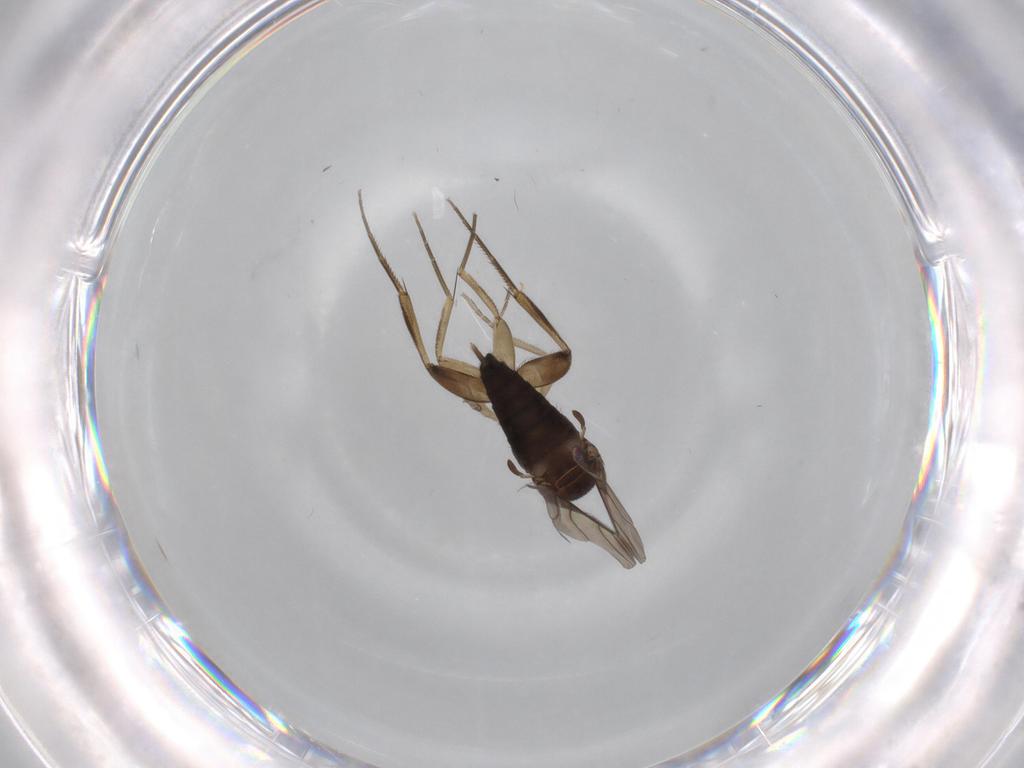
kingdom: Animalia
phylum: Arthropoda
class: Insecta
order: Diptera
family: Phoridae
